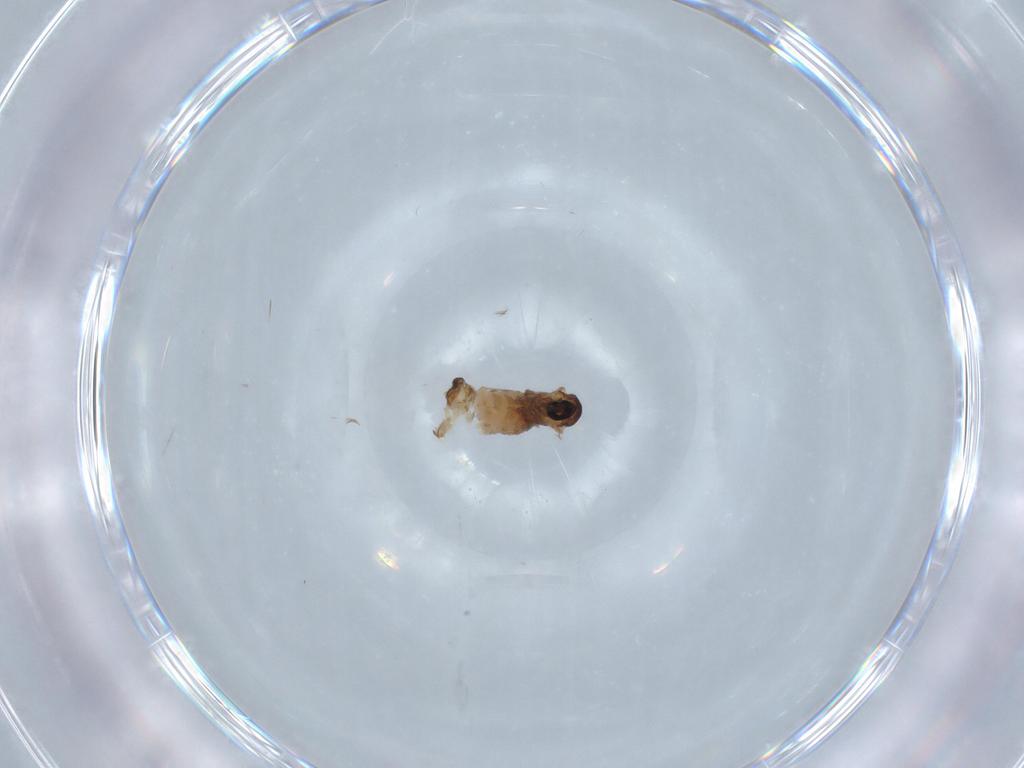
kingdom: Animalia
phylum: Arthropoda
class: Insecta
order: Diptera
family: Psychodidae
